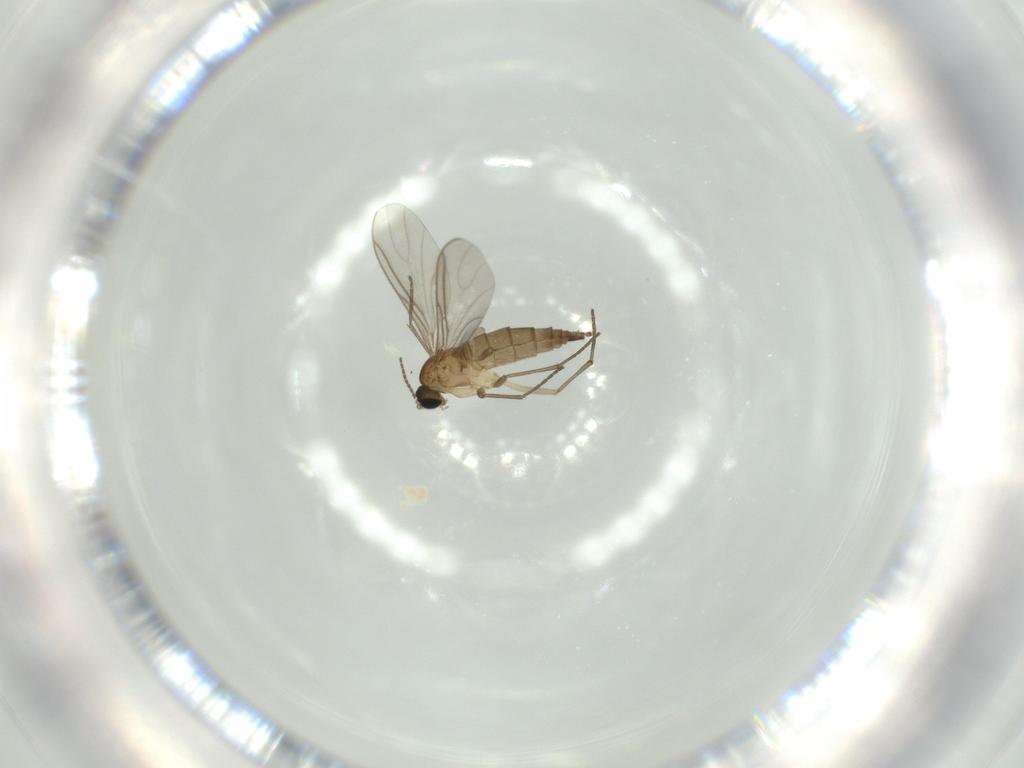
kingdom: Animalia
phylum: Arthropoda
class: Insecta
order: Diptera
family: Sciaridae
